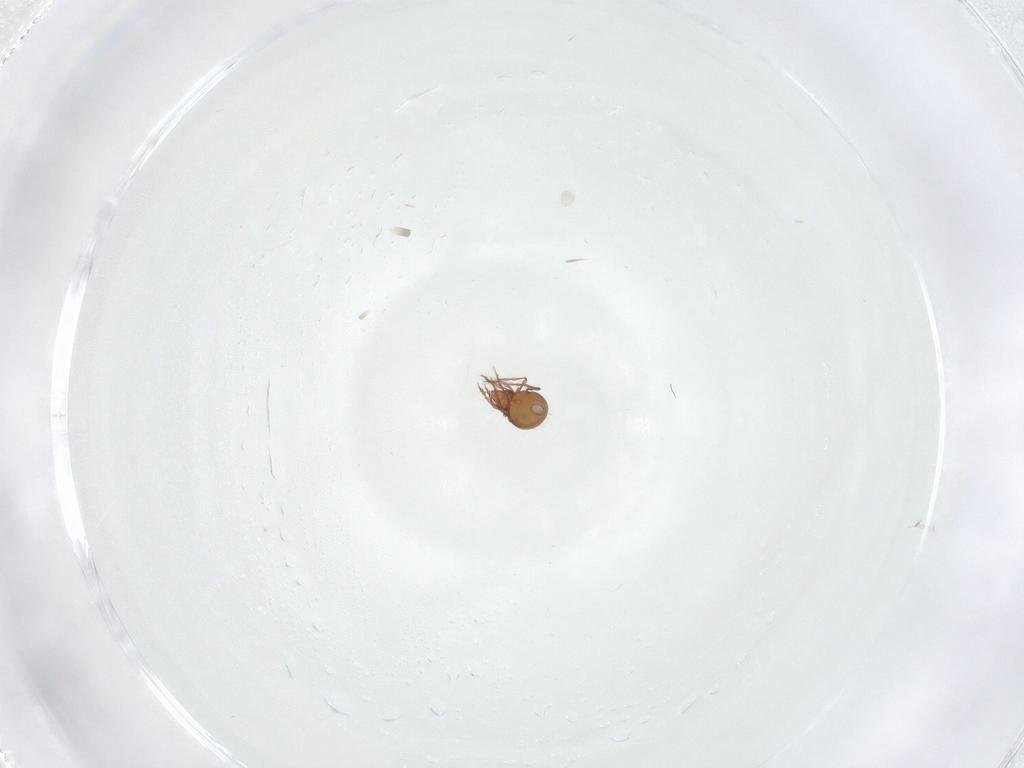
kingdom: Animalia
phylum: Arthropoda
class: Arachnida
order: Sarcoptiformes
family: Oppiidae
